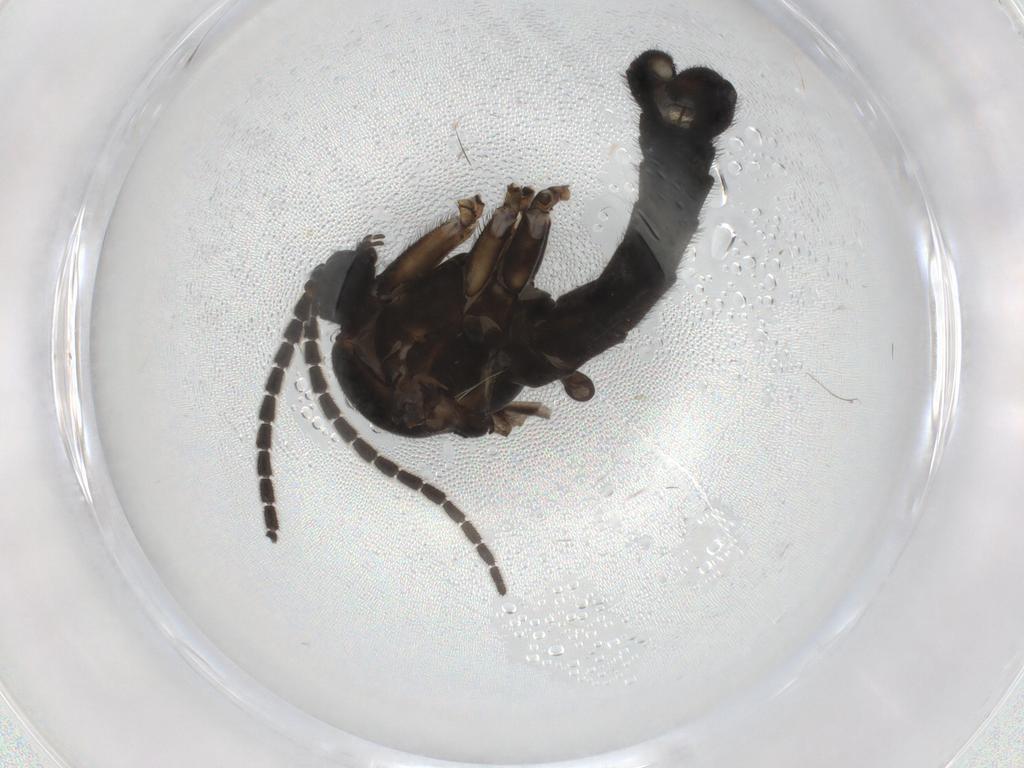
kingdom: Animalia
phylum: Arthropoda
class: Insecta
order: Diptera
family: Sciaridae
